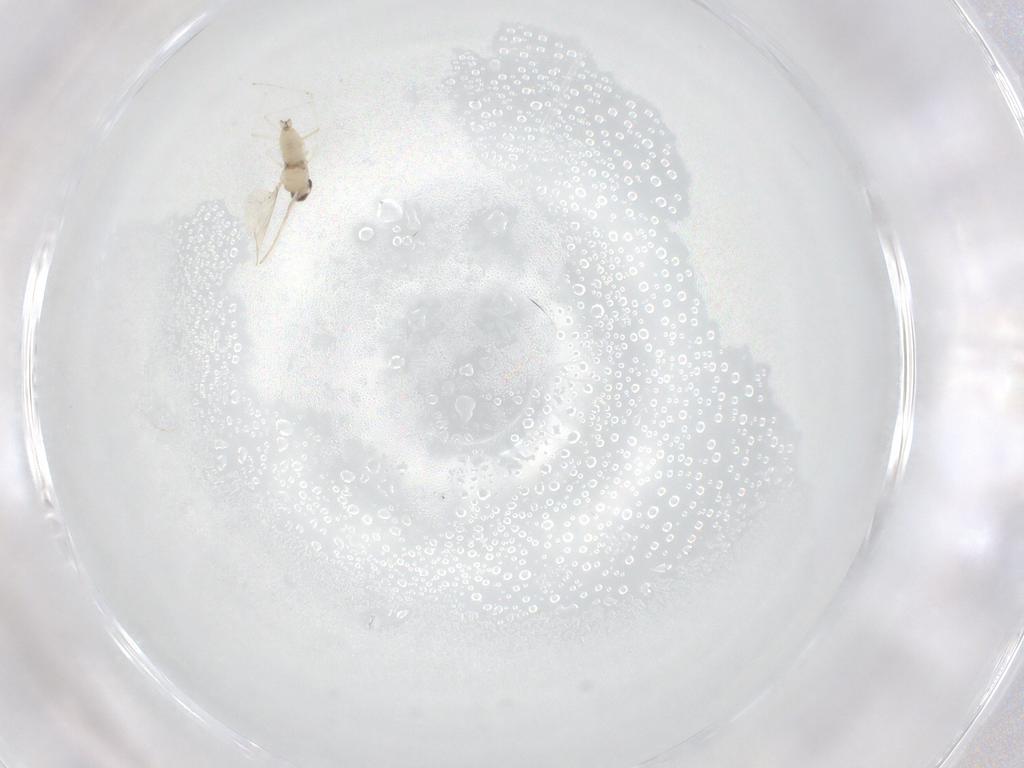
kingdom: Animalia
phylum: Arthropoda
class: Insecta
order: Diptera
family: Cecidomyiidae
